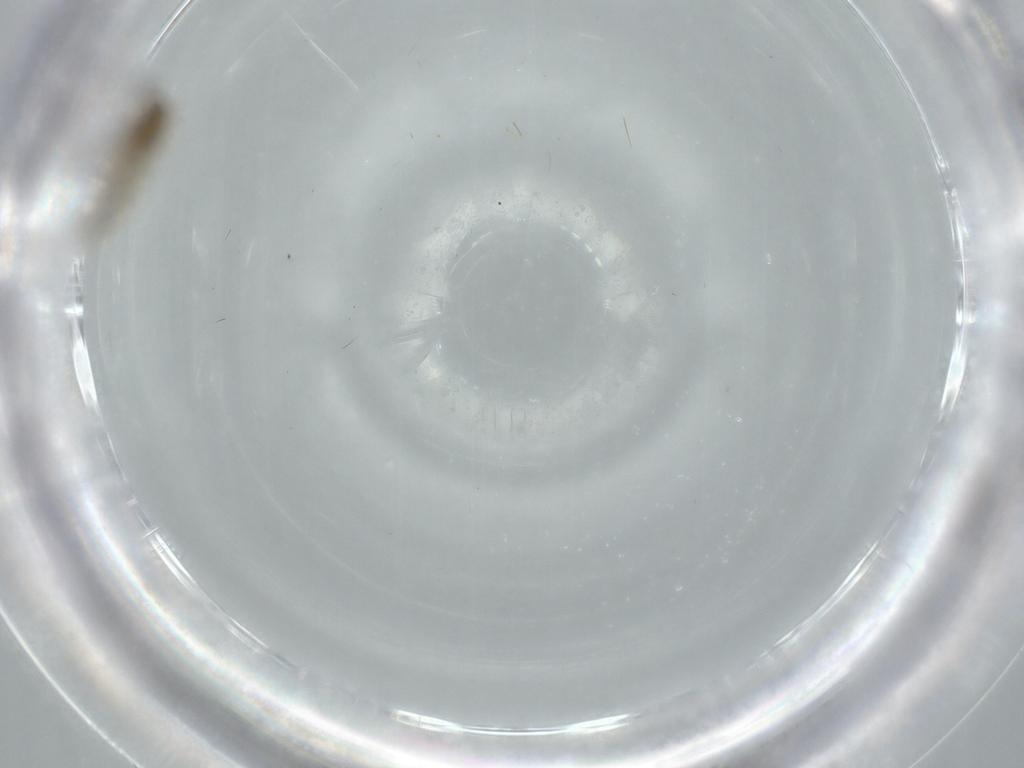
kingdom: Animalia
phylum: Arthropoda
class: Insecta
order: Diptera
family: Chironomidae
